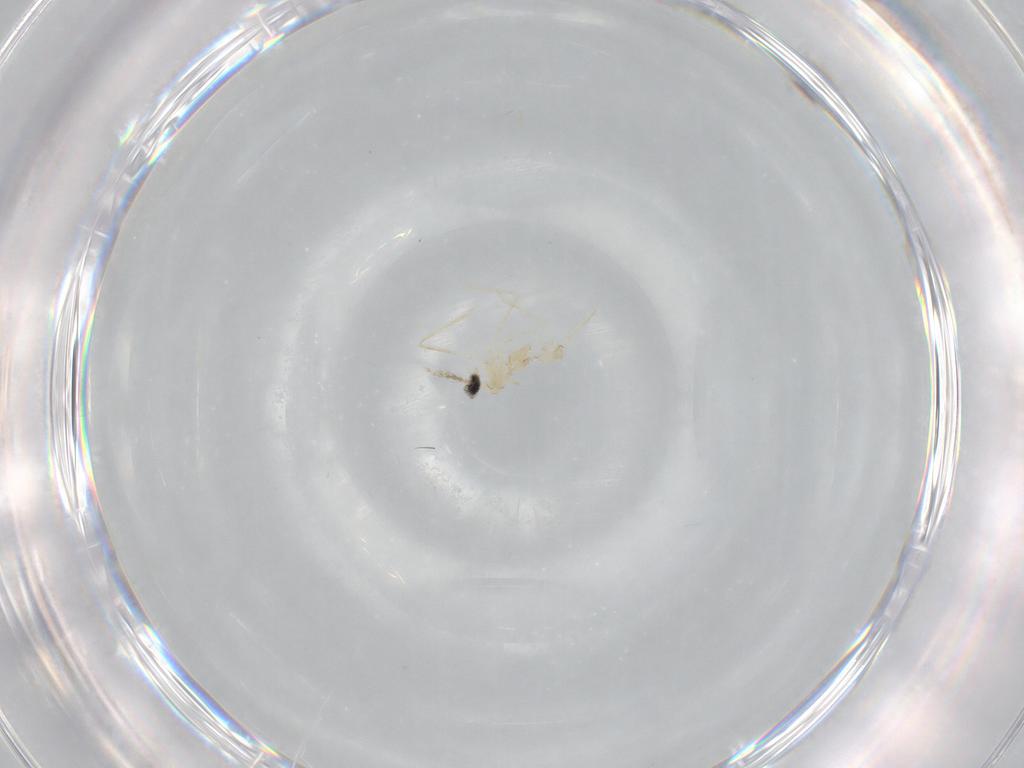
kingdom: Animalia
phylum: Arthropoda
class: Insecta
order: Diptera
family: Cecidomyiidae
